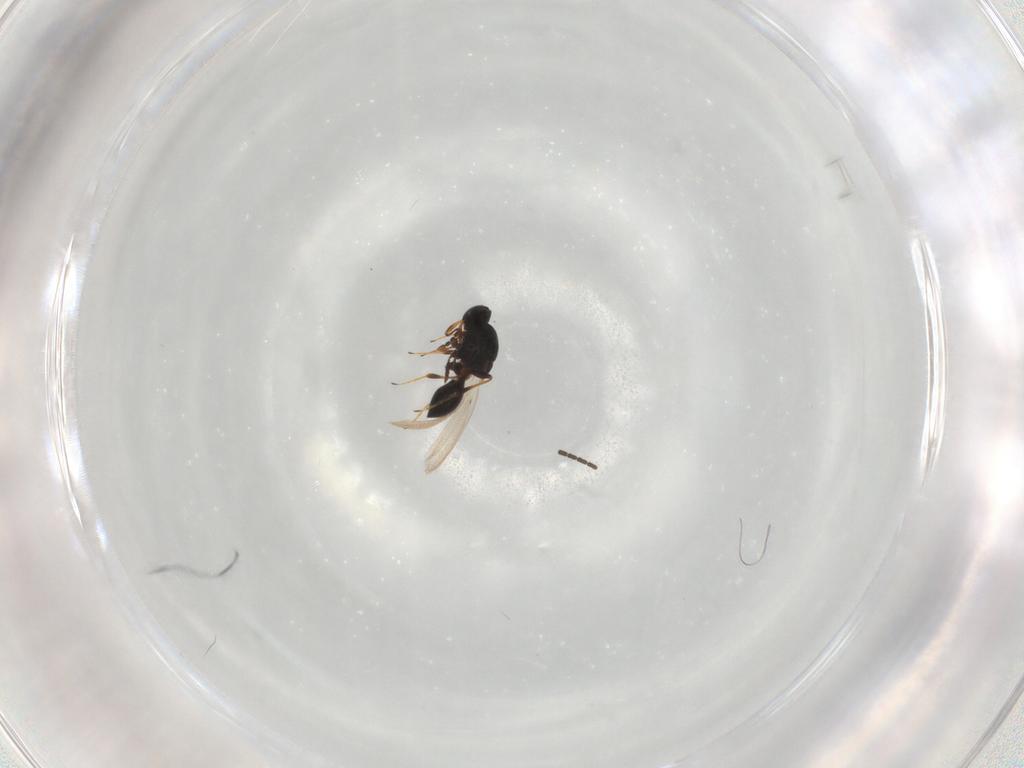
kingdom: Animalia
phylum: Arthropoda
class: Insecta
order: Hymenoptera
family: Platygastridae
